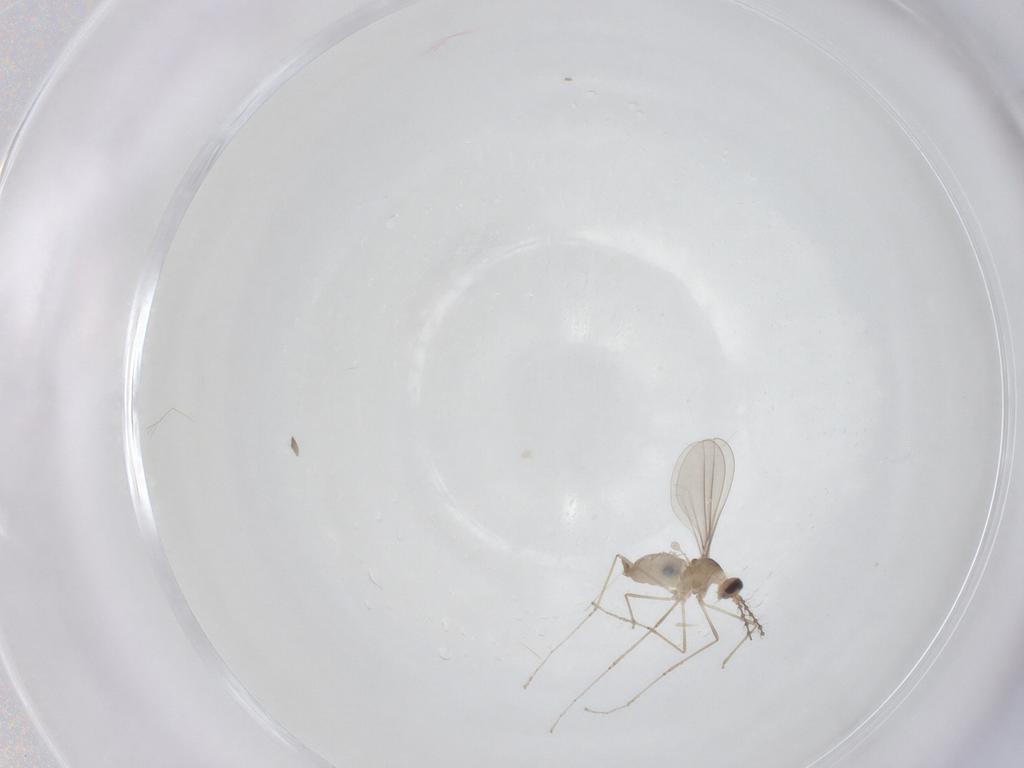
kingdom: Animalia
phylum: Arthropoda
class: Insecta
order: Diptera
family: Cecidomyiidae
